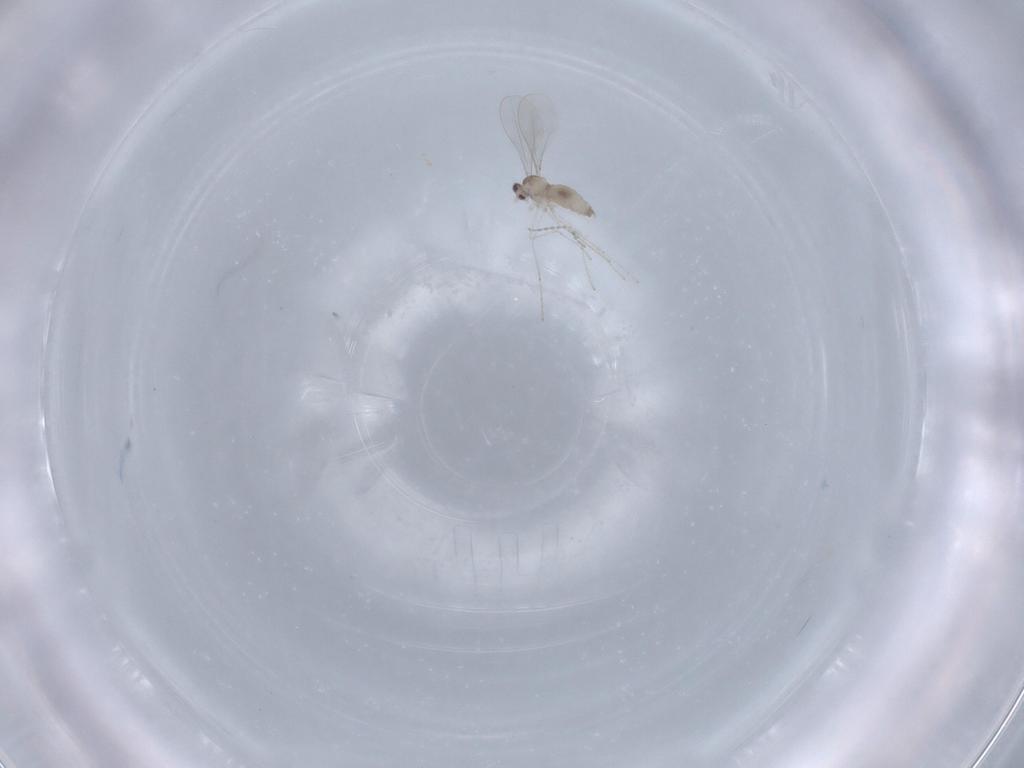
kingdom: Animalia
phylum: Arthropoda
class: Insecta
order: Diptera
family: Cecidomyiidae
